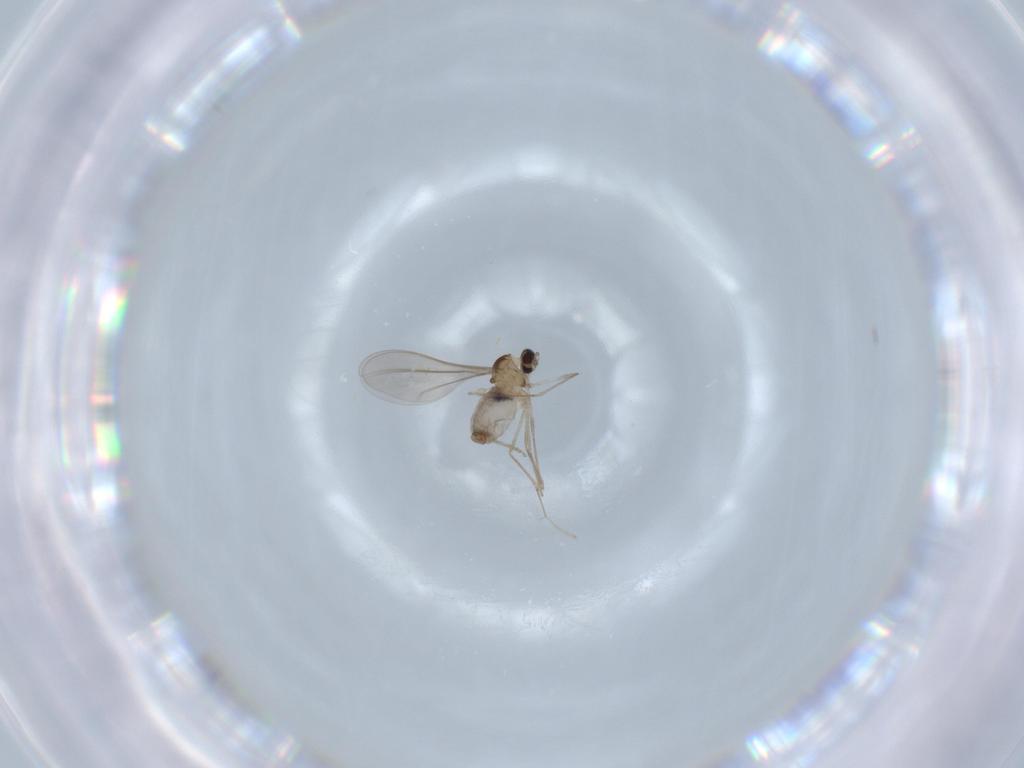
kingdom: Animalia
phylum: Arthropoda
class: Insecta
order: Diptera
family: Mycetophilidae
